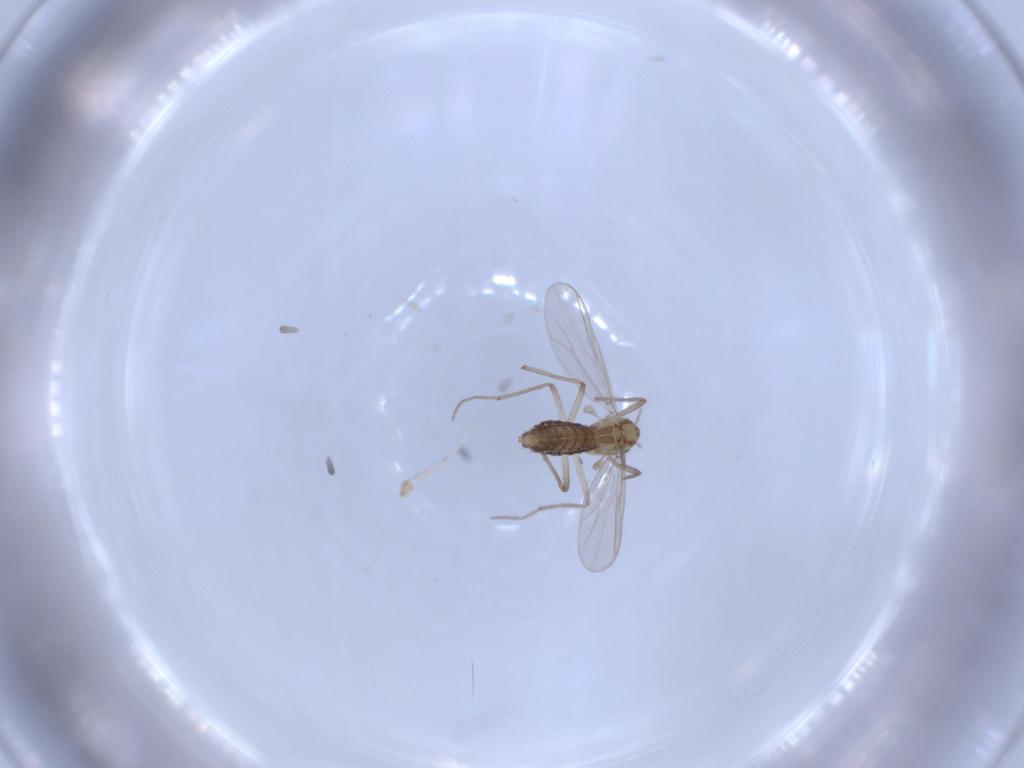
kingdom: Animalia
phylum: Arthropoda
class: Insecta
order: Diptera
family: Chironomidae
